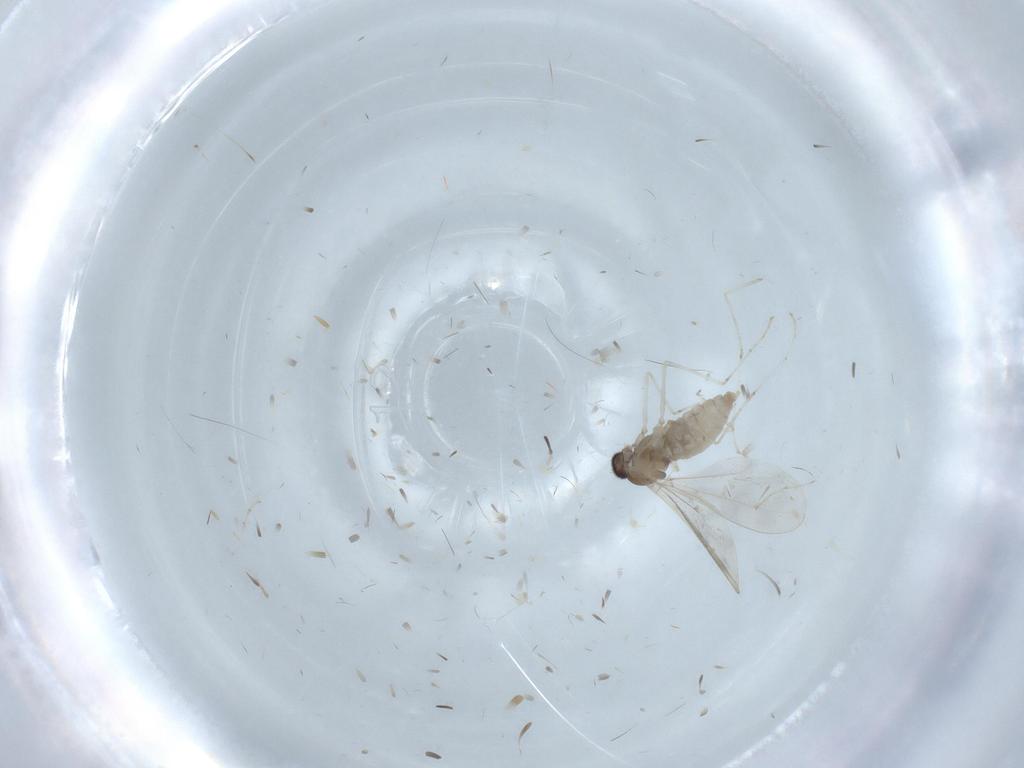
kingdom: Animalia
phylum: Arthropoda
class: Insecta
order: Diptera
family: Cecidomyiidae
